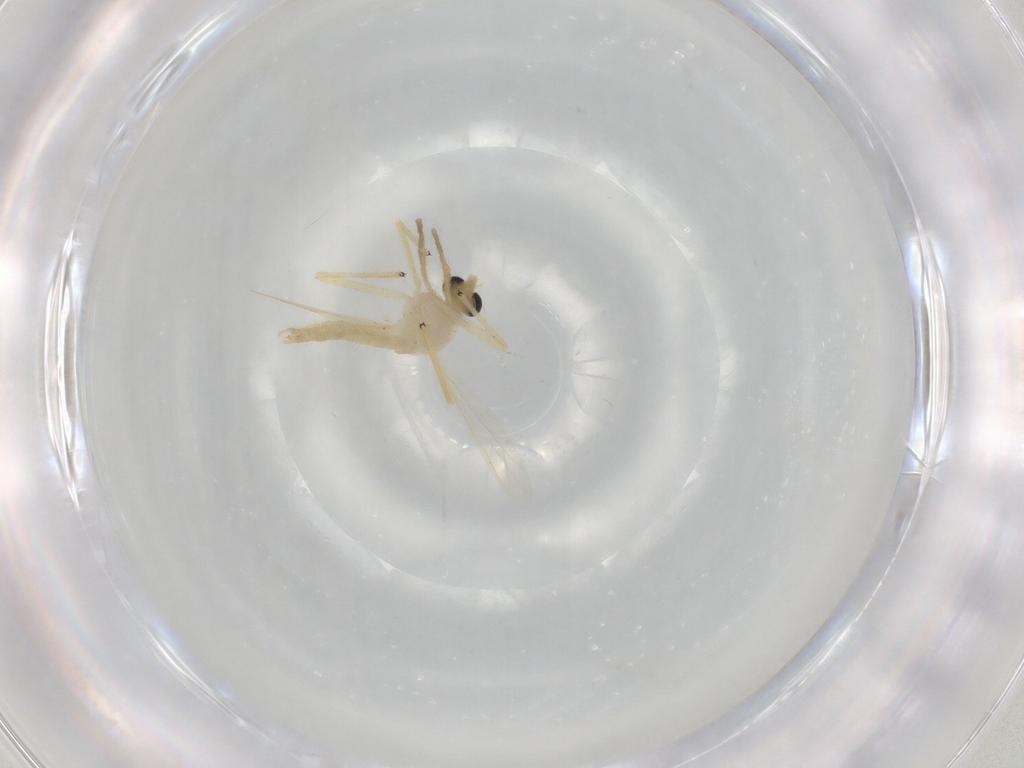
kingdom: Animalia
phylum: Arthropoda
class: Insecta
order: Diptera
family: Chironomidae
